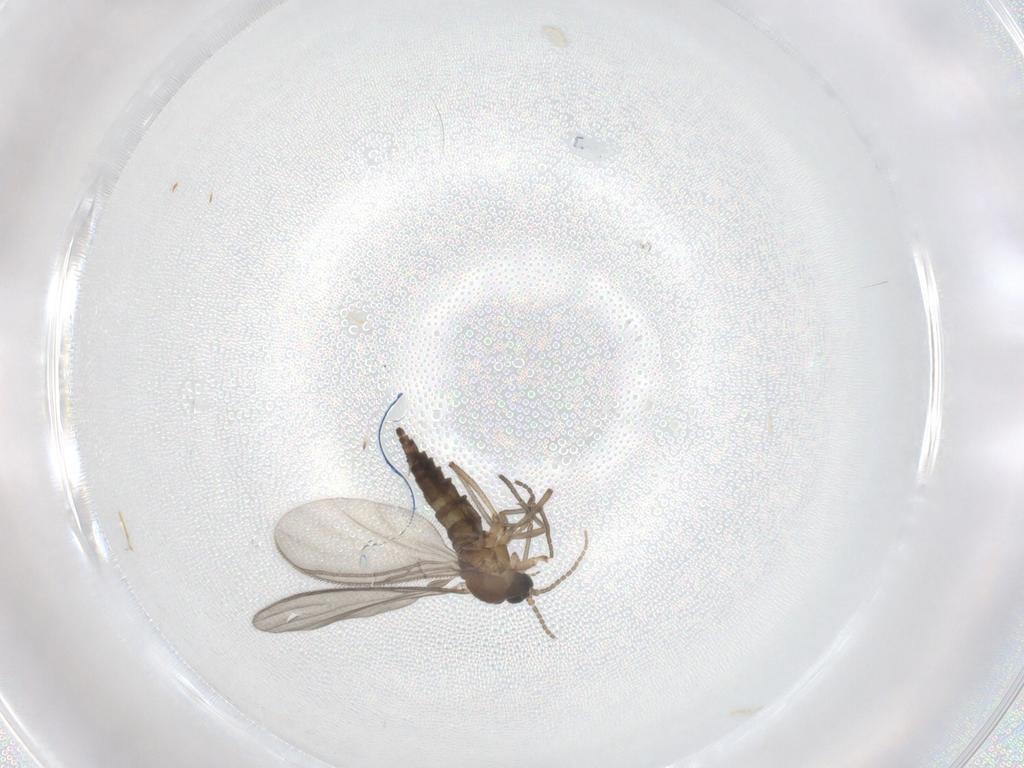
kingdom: Animalia
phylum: Arthropoda
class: Insecta
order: Diptera
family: Sciaridae
